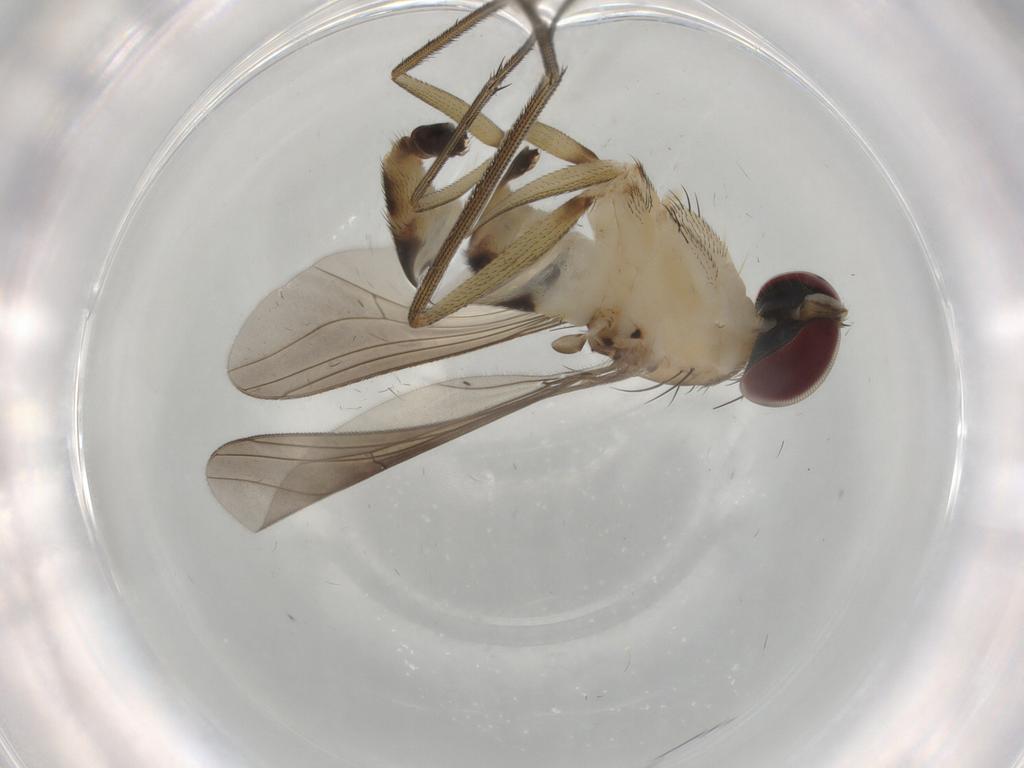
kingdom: Animalia
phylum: Arthropoda
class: Insecta
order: Diptera
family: Dolichopodidae
